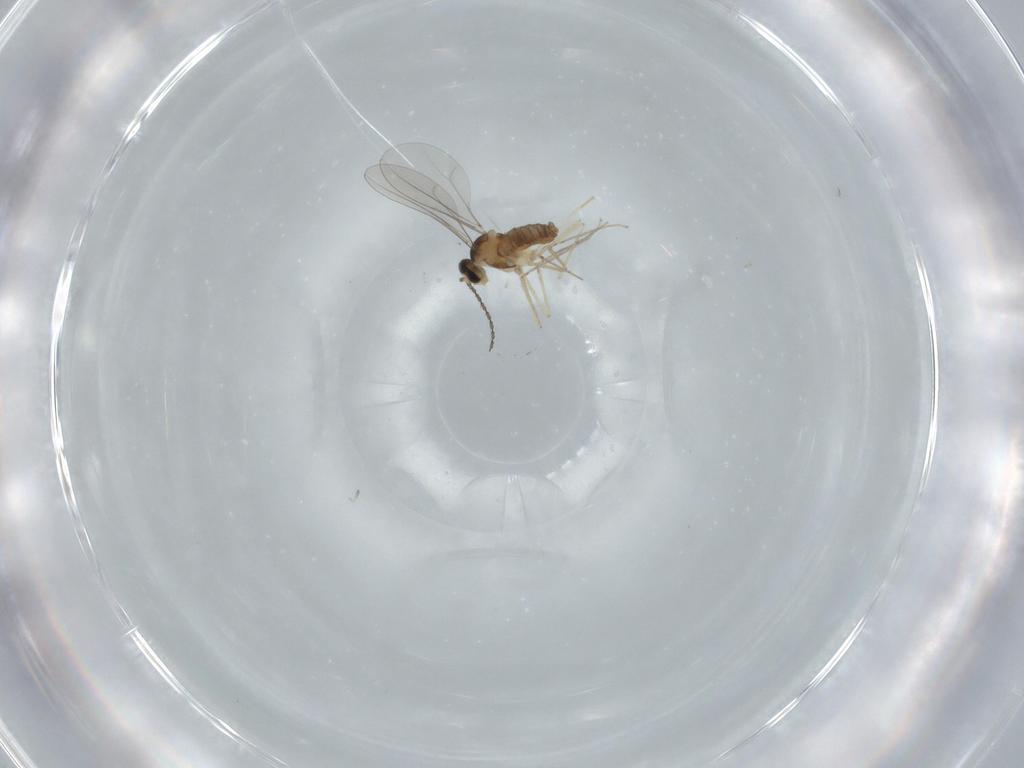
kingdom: Animalia
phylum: Arthropoda
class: Insecta
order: Diptera
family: Cecidomyiidae
